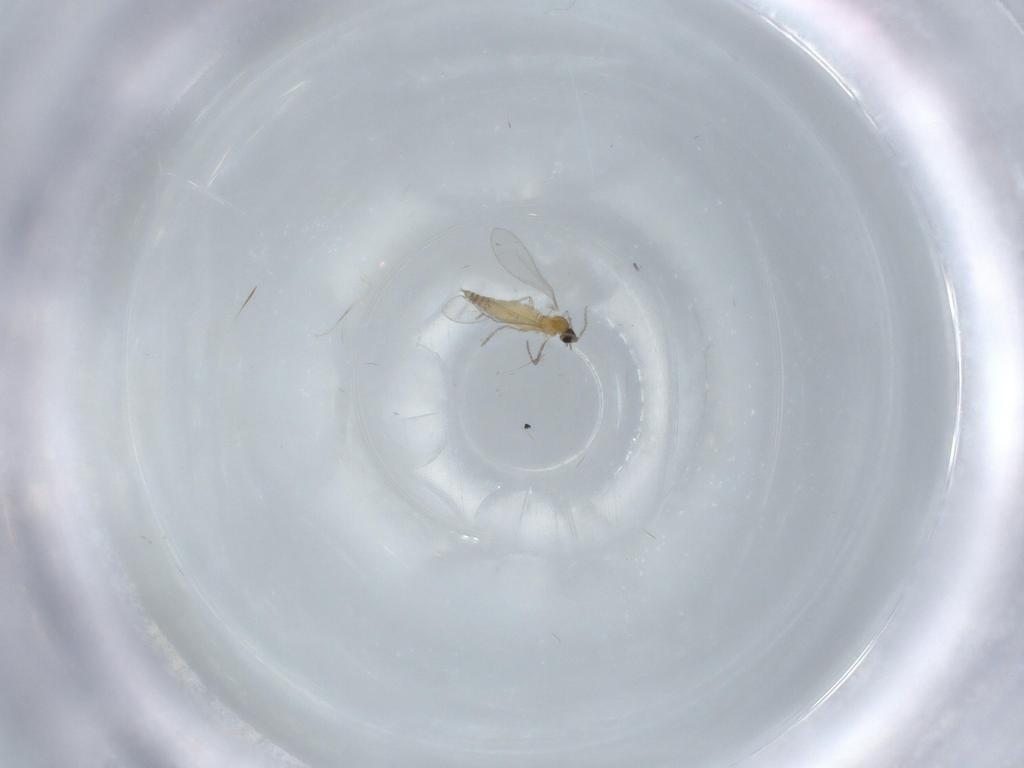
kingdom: Animalia
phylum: Arthropoda
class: Insecta
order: Diptera
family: Cecidomyiidae
